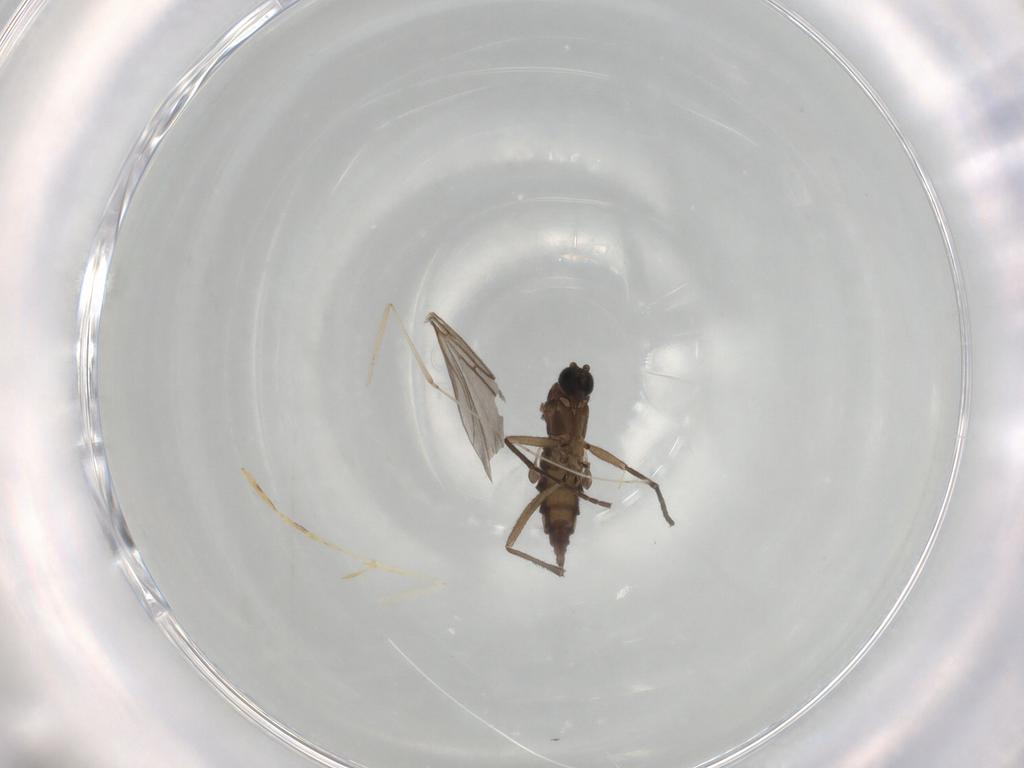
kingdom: Animalia
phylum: Arthropoda
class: Insecta
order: Diptera
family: Sciaridae
